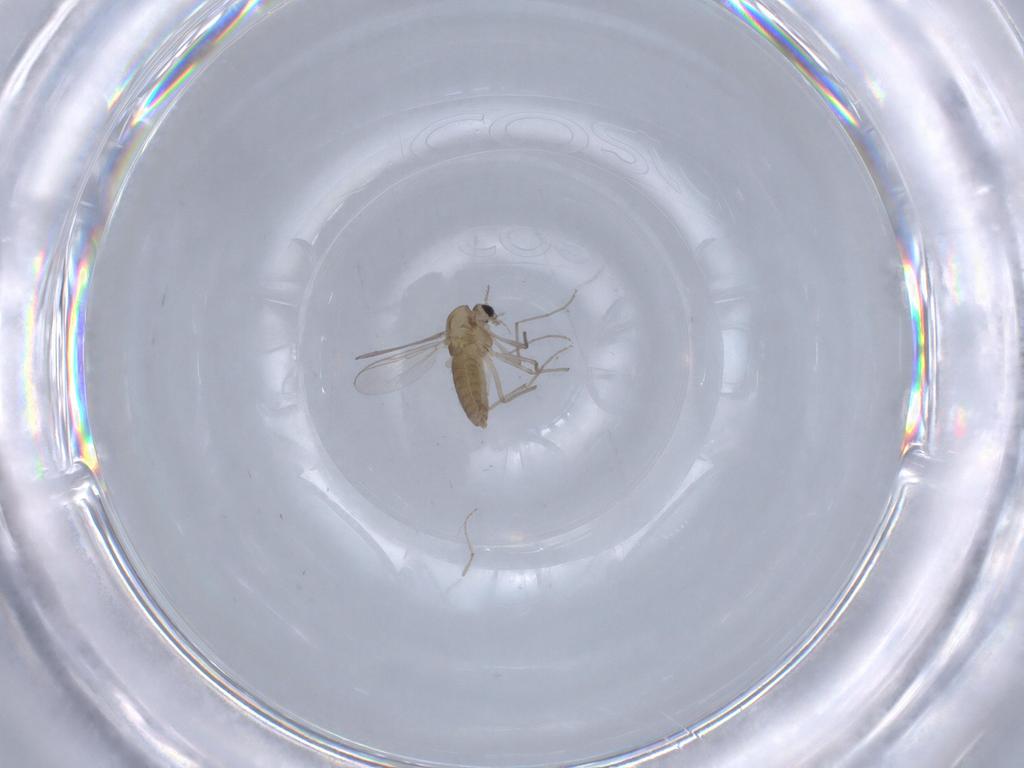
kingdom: Animalia
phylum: Arthropoda
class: Insecta
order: Diptera
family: Chironomidae
